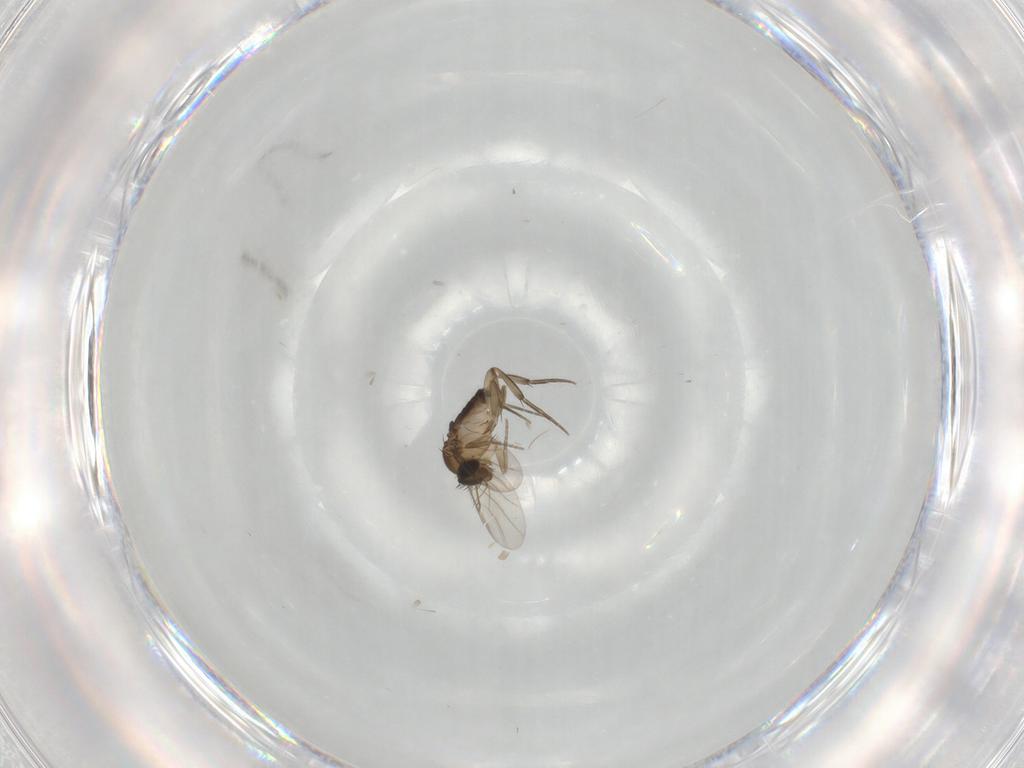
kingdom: Animalia
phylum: Arthropoda
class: Insecta
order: Diptera
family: Phoridae
